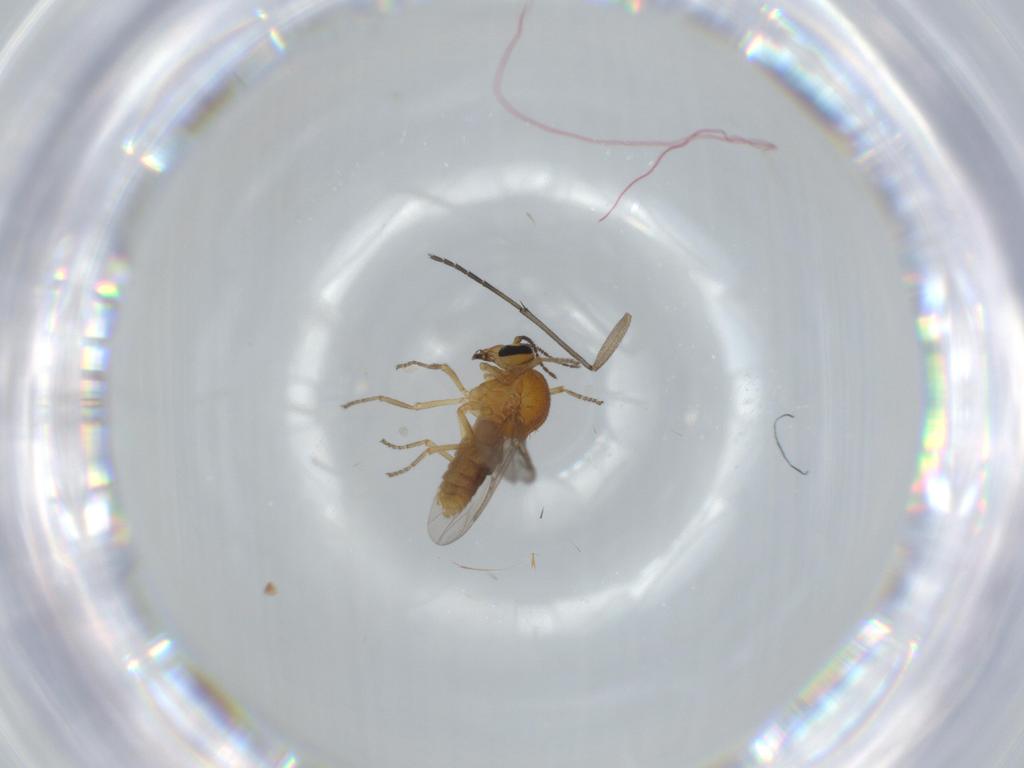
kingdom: Animalia
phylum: Arthropoda
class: Insecta
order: Diptera
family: Ceratopogonidae
